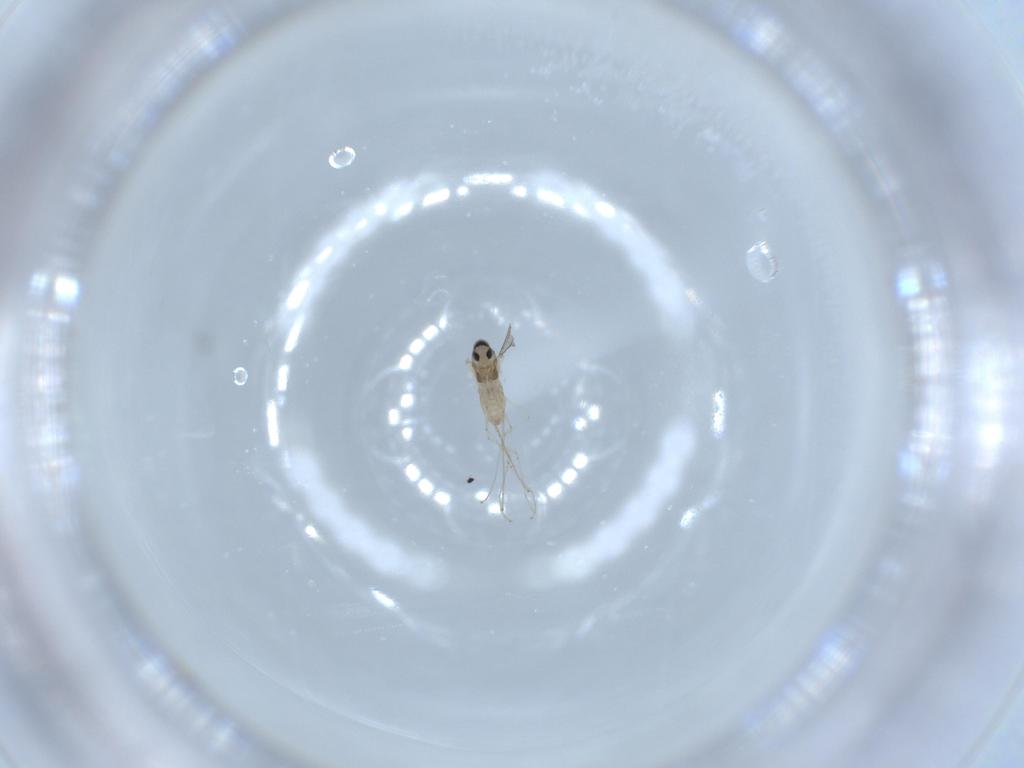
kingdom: Animalia
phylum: Arthropoda
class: Insecta
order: Diptera
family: Cecidomyiidae
